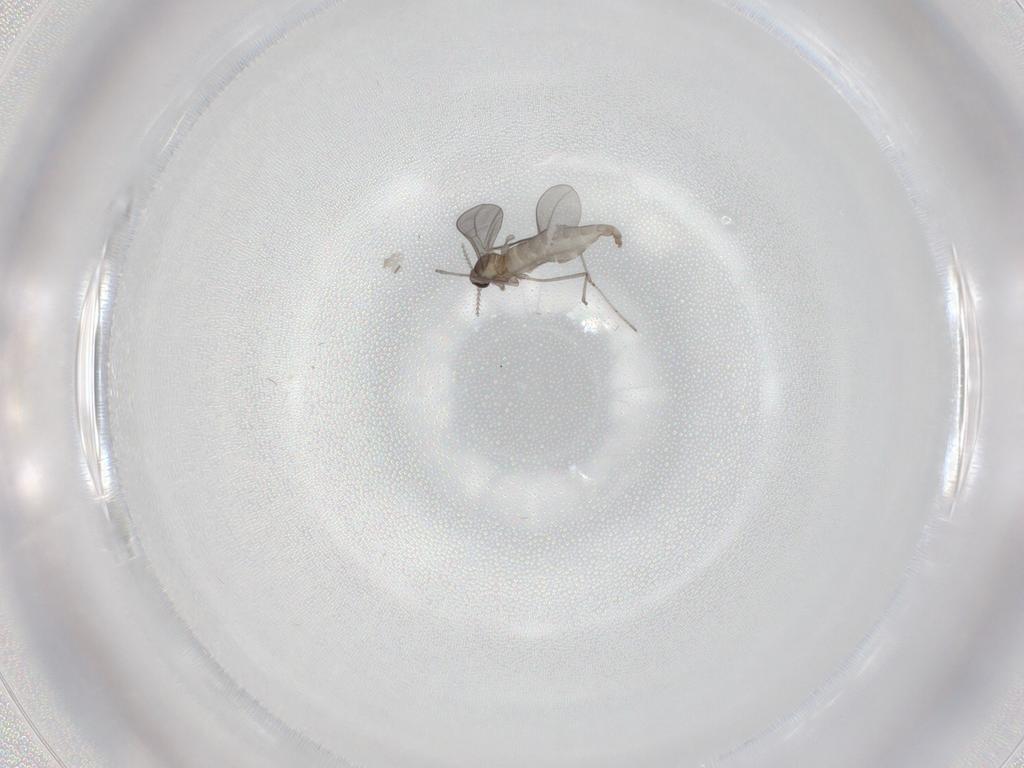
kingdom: Animalia
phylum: Arthropoda
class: Insecta
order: Diptera
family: Cecidomyiidae
